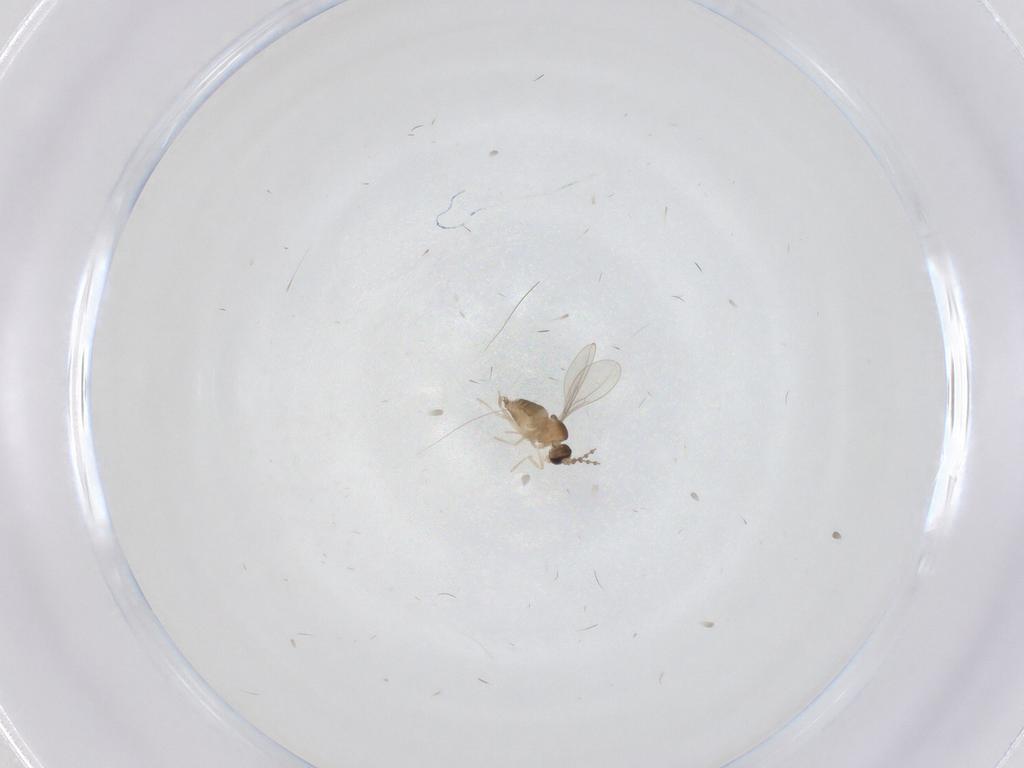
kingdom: Animalia
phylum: Arthropoda
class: Insecta
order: Diptera
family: Cecidomyiidae
